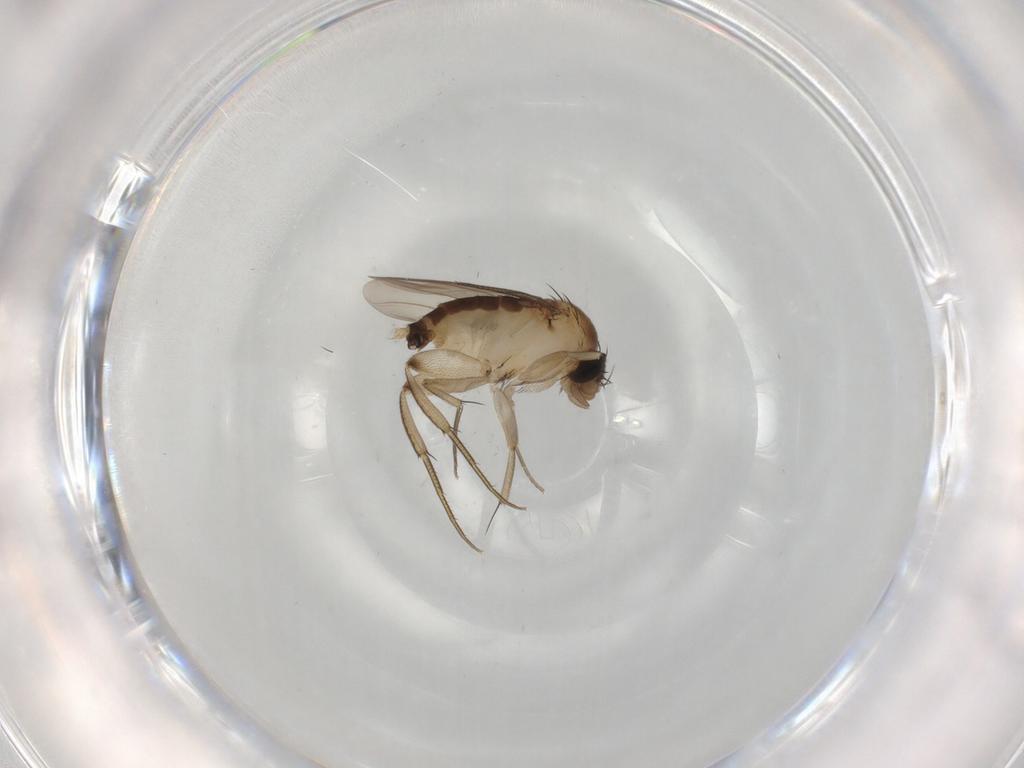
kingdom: Animalia
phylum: Arthropoda
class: Insecta
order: Diptera
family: Phoridae
